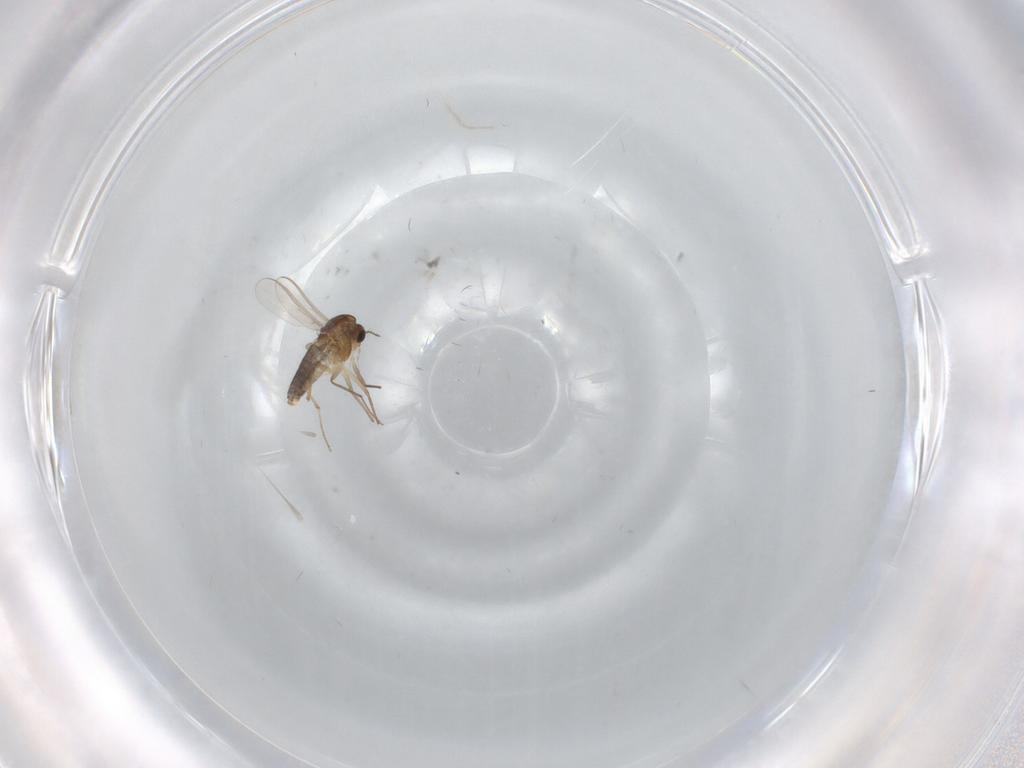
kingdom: Animalia
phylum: Arthropoda
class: Insecta
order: Diptera
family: Chironomidae
